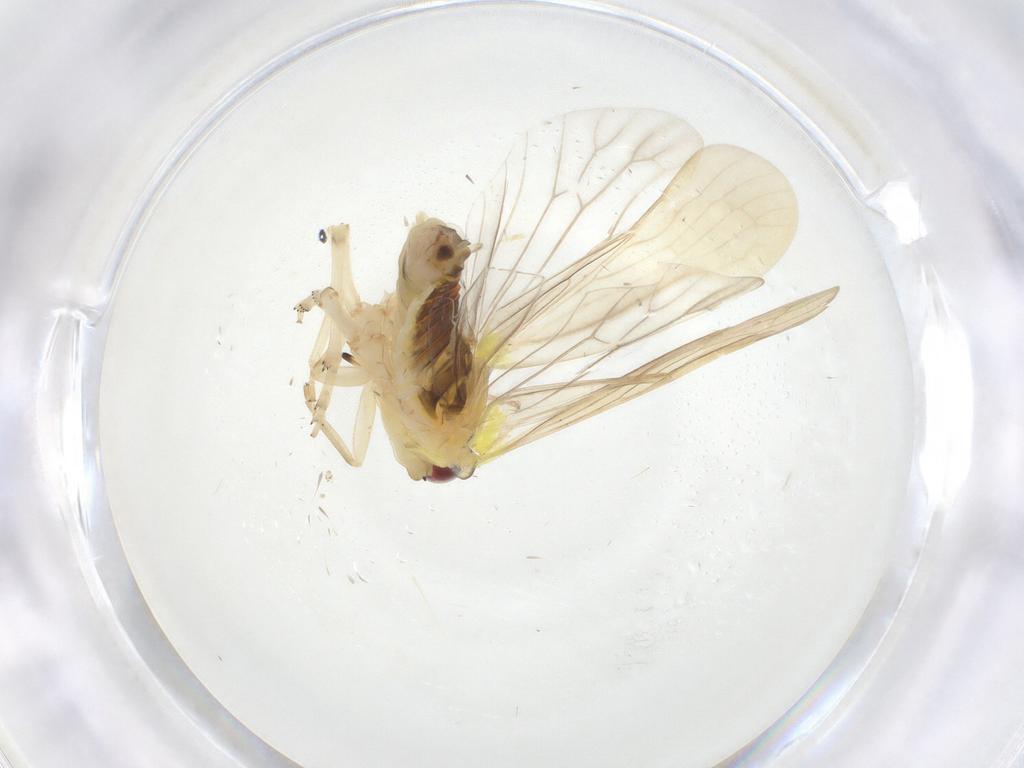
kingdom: Animalia
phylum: Arthropoda
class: Insecta
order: Hemiptera
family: Achilidae
